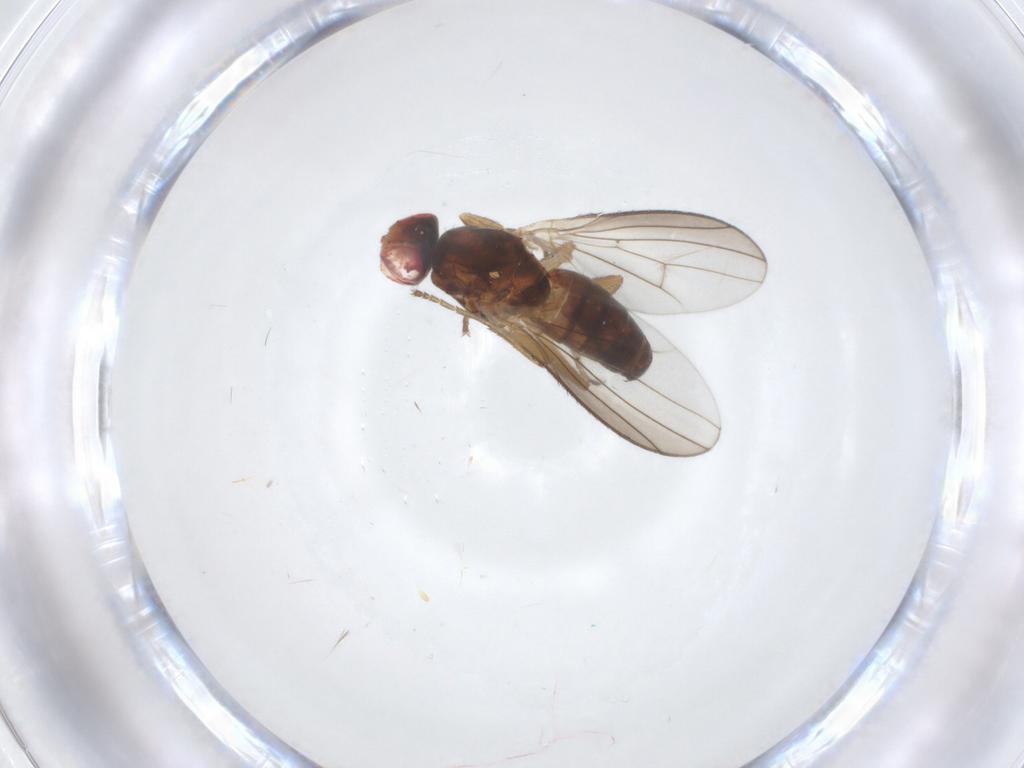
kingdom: Animalia
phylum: Arthropoda
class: Insecta
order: Diptera
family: Heleomyzidae
